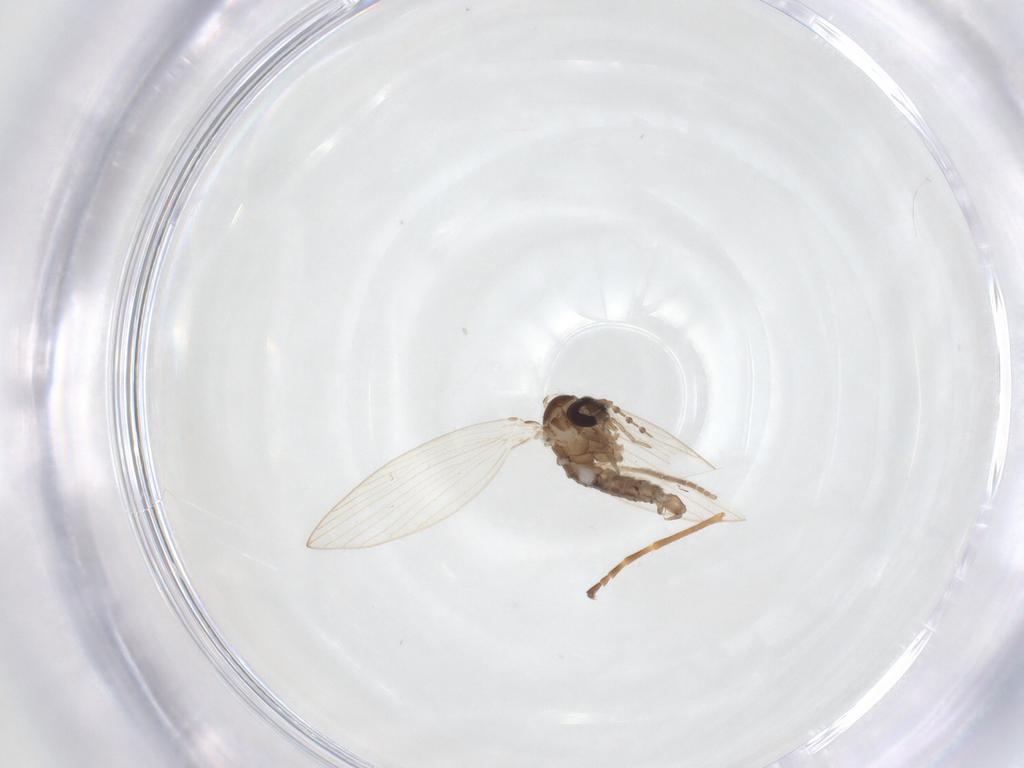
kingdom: Animalia
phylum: Arthropoda
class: Insecta
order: Diptera
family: Psychodidae
